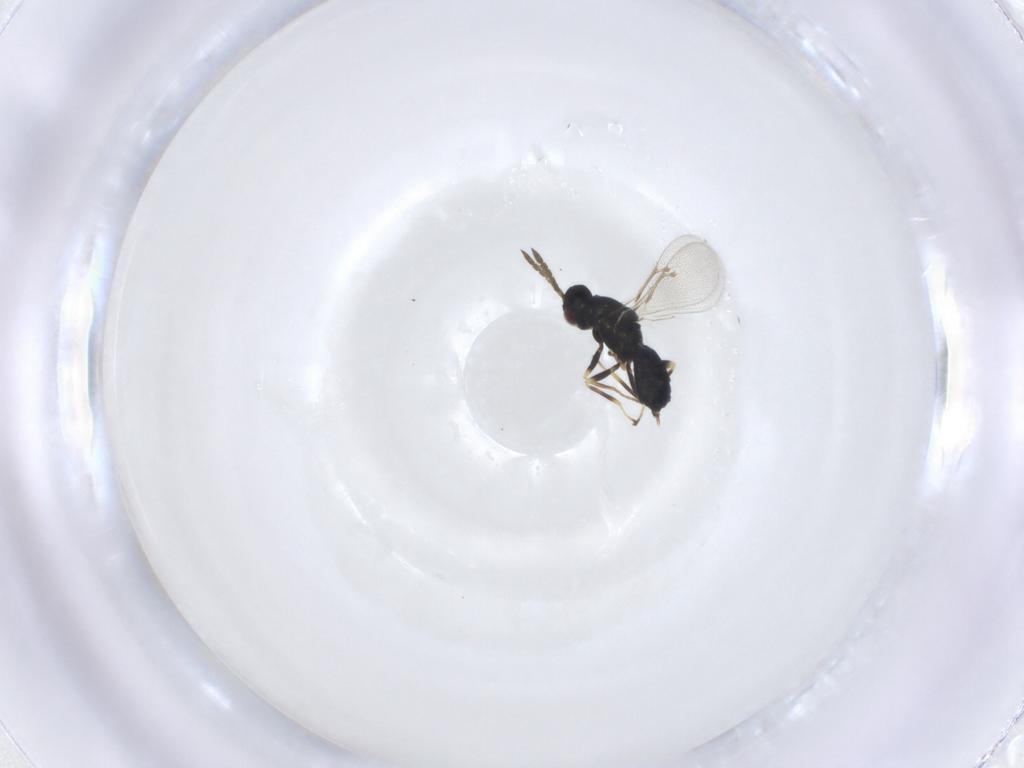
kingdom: Animalia
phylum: Arthropoda
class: Insecta
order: Hymenoptera
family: Eulophidae
